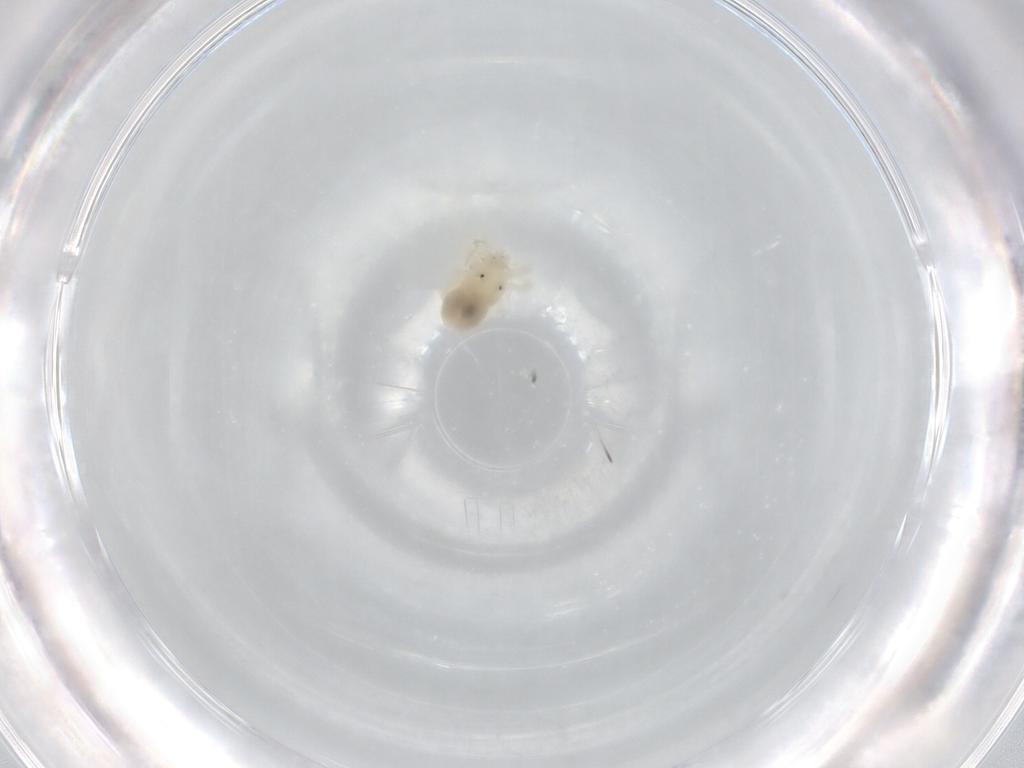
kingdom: Animalia
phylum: Arthropoda
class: Arachnida
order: Trombidiformes
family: Anystidae
